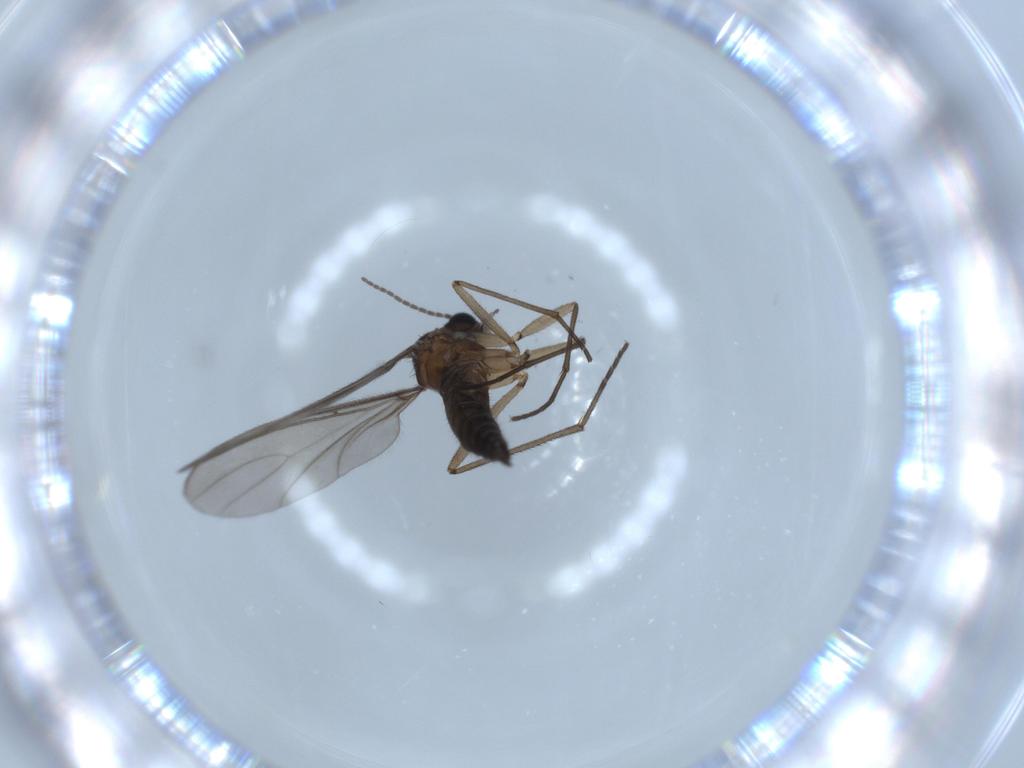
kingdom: Animalia
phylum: Arthropoda
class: Insecta
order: Diptera
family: Sciaridae
